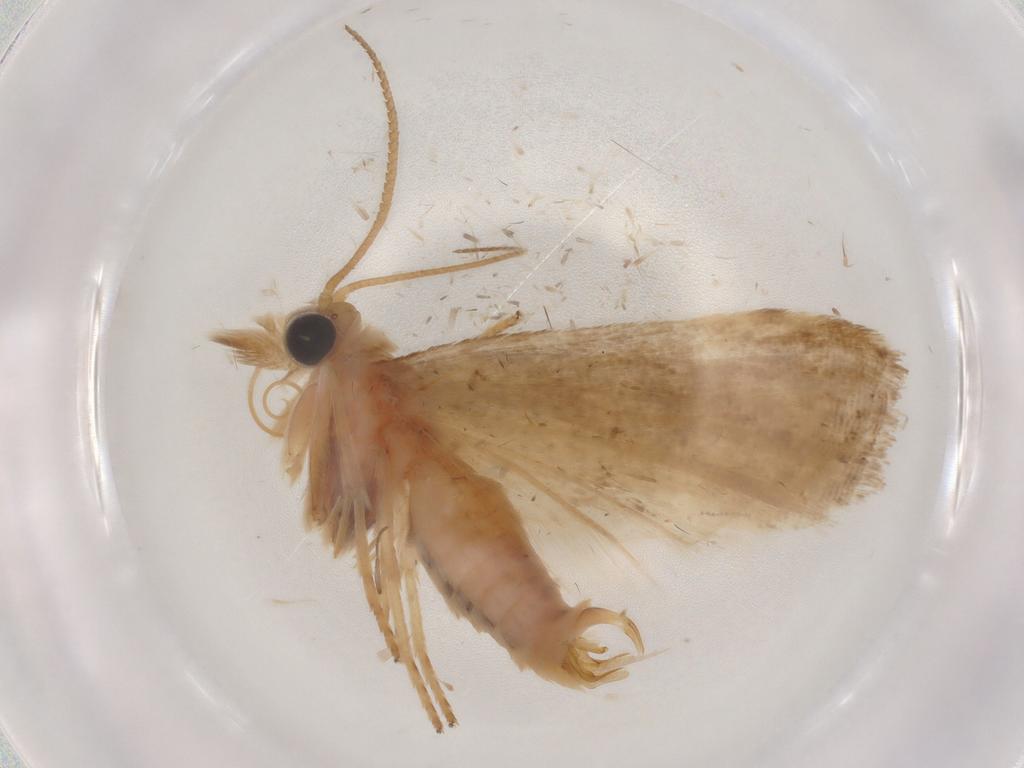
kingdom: Animalia
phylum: Arthropoda
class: Insecta
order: Lepidoptera
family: Pyralidae
